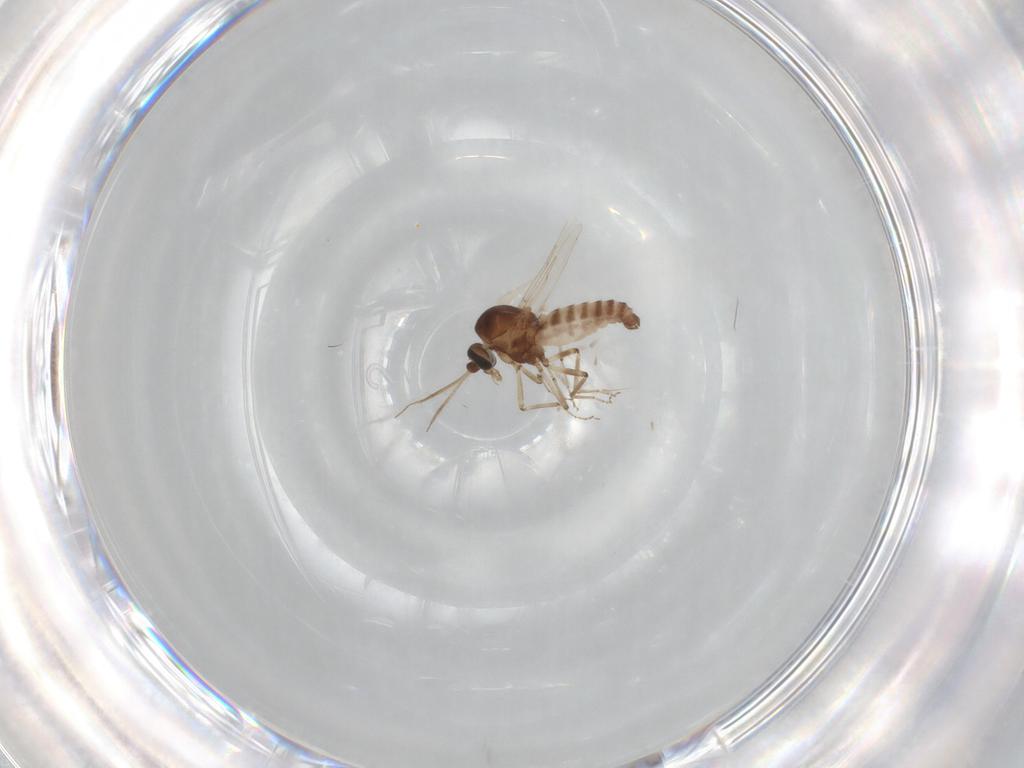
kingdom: Animalia
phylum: Arthropoda
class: Insecta
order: Diptera
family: Ceratopogonidae
